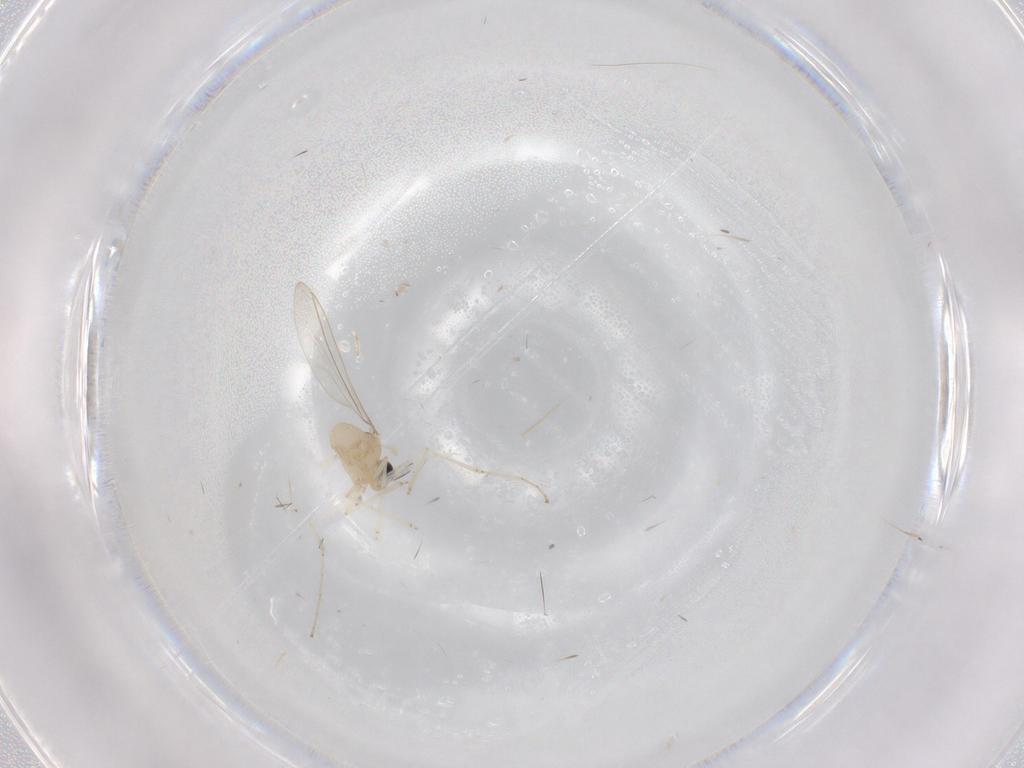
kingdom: Animalia
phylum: Arthropoda
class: Insecta
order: Diptera
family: Cecidomyiidae
